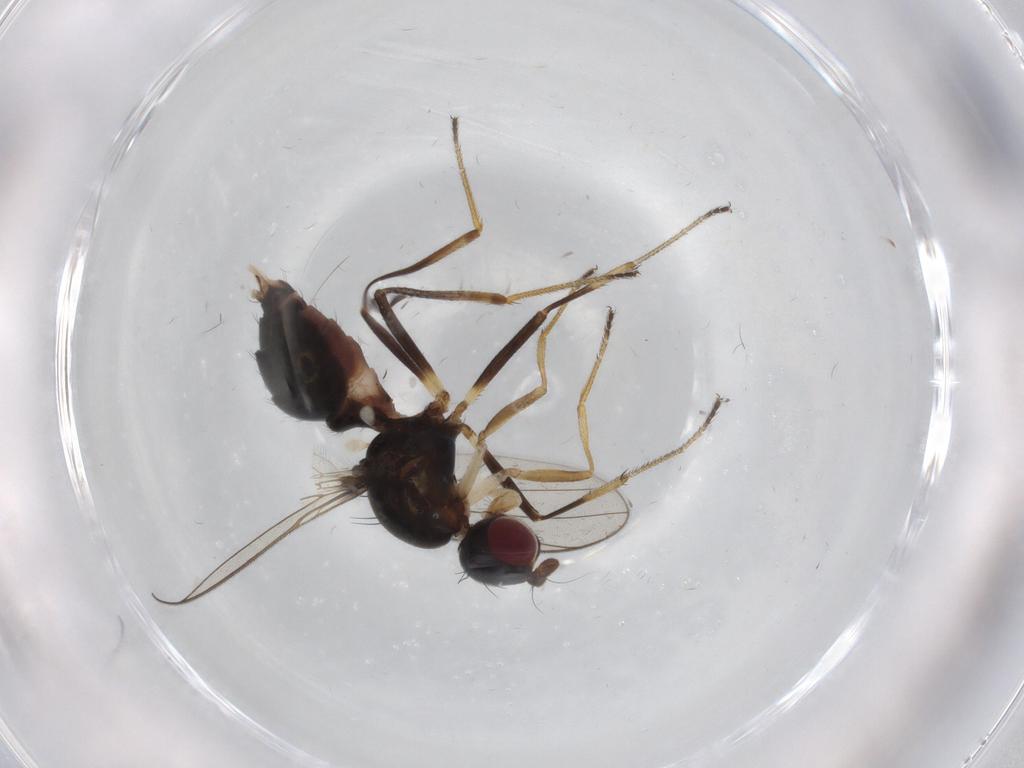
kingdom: Animalia
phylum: Arthropoda
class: Insecta
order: Diptera
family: Sepsidae
